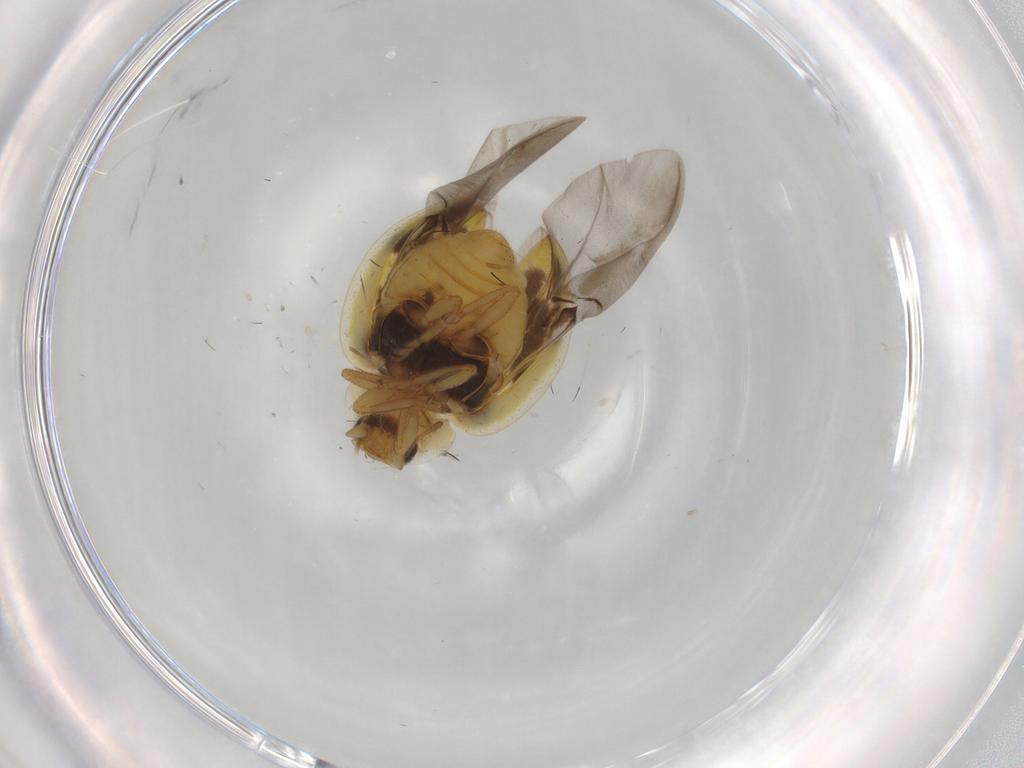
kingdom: Animalia
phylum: Arthropoda
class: Insecta
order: Coleoptera
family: Coccinellidae
